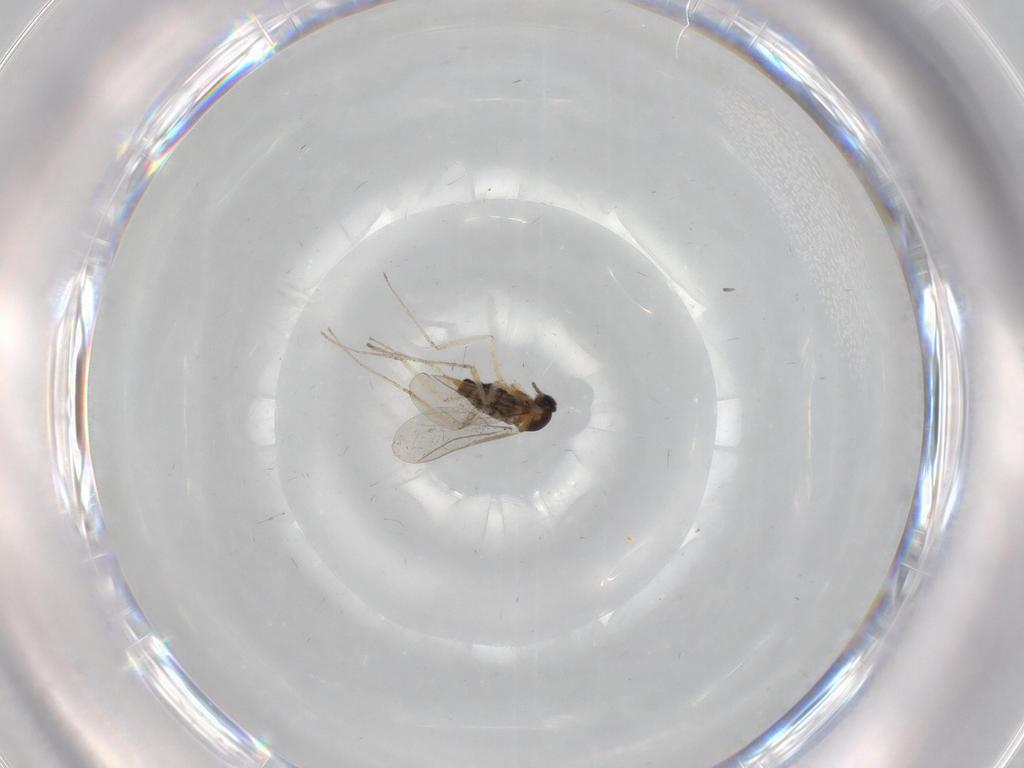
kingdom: Animalia
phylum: Arthropoda
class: Insecta
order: Diptera
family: Cecidomyiidae
